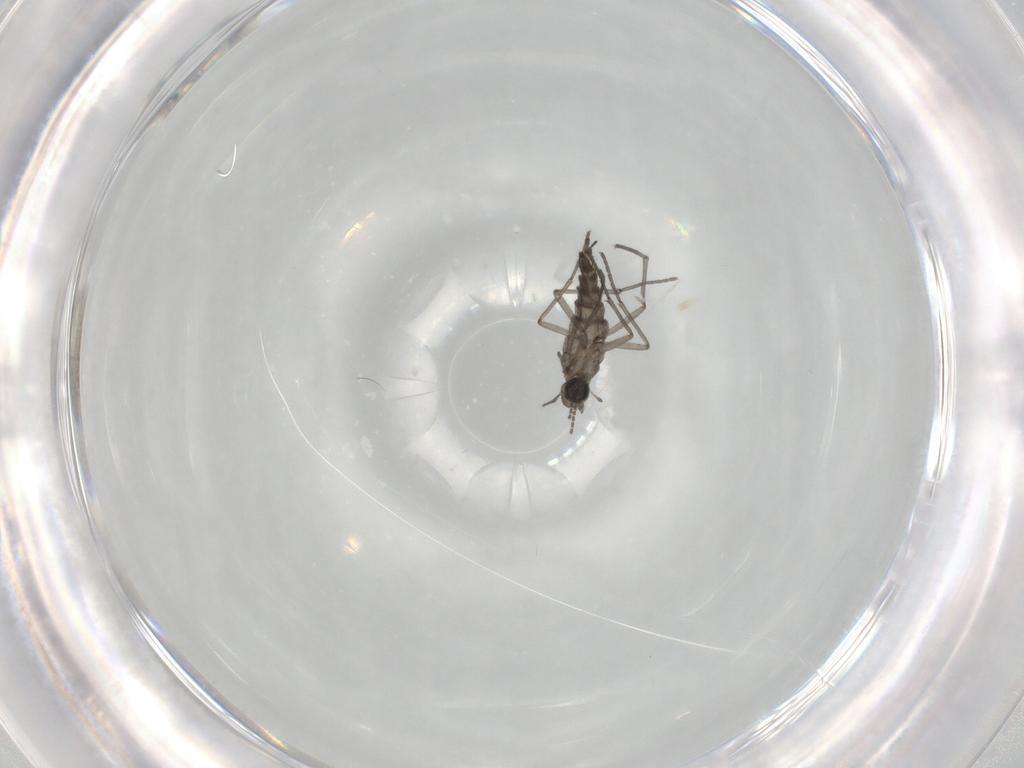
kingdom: Animalia
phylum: Arthropoda
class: Insecta
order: Diptera
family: Sciaridae
